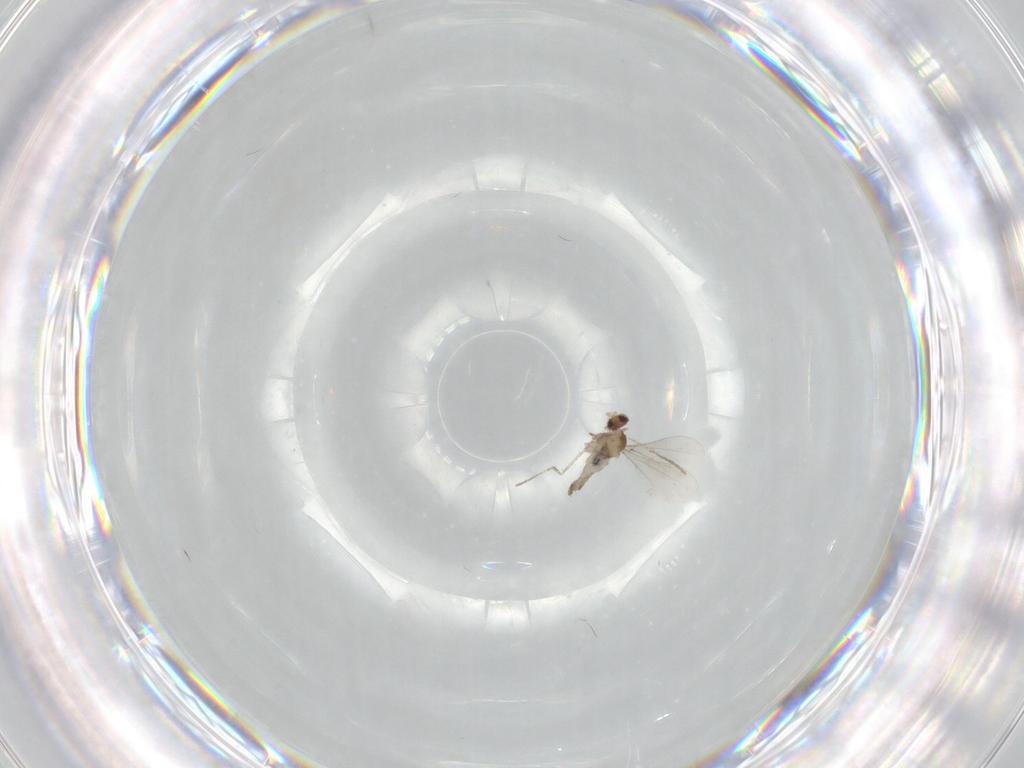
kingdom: Animalia
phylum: Arthropoda
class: Insecta
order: Diptera
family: Cecidomyiidae
